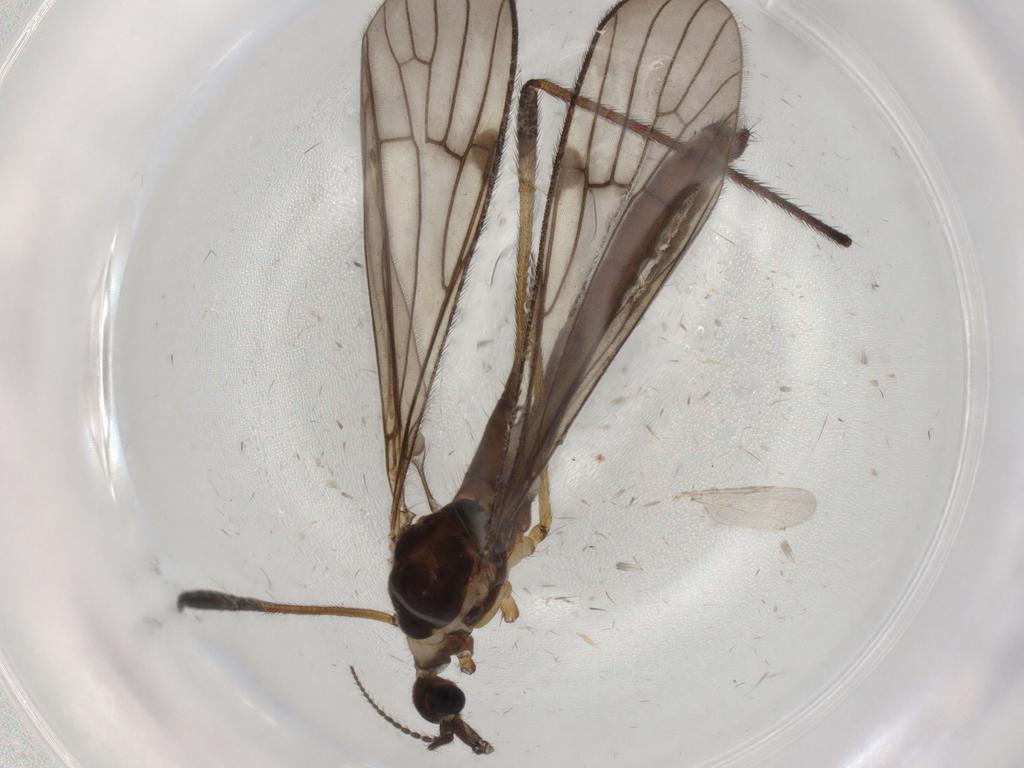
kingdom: Animalia
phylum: Arthropoda
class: Insecta
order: Diptera
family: Limoniidae
